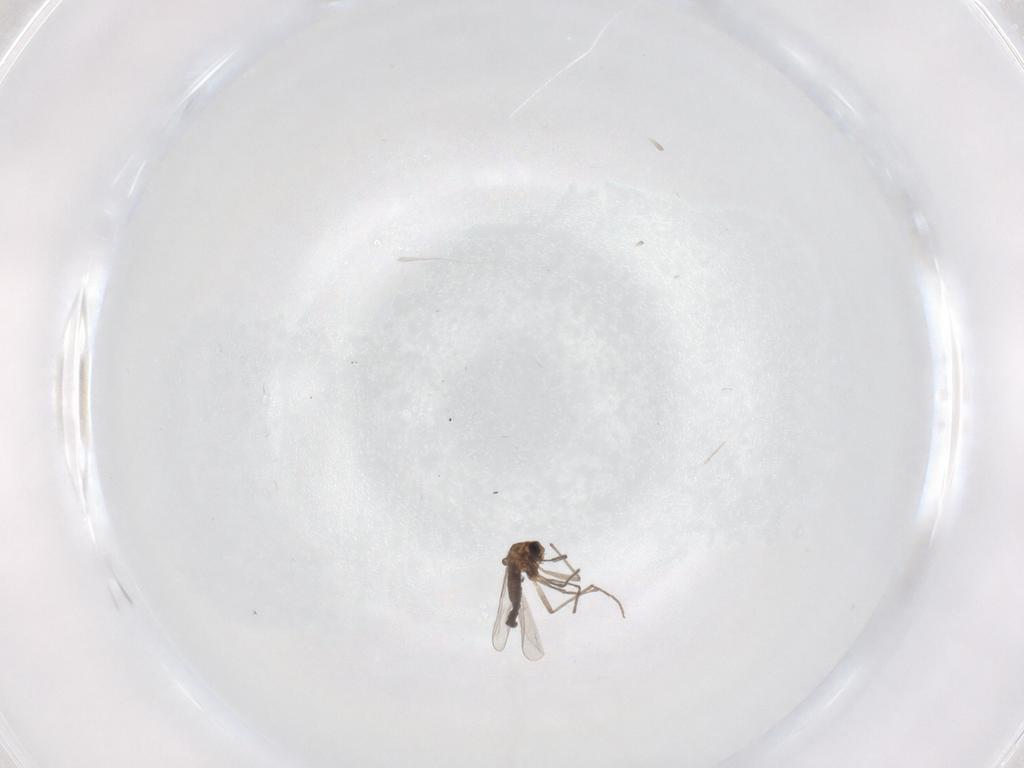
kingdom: Animalia
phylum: Arthropoda
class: Insecta
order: Diptera
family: Chironomidae
